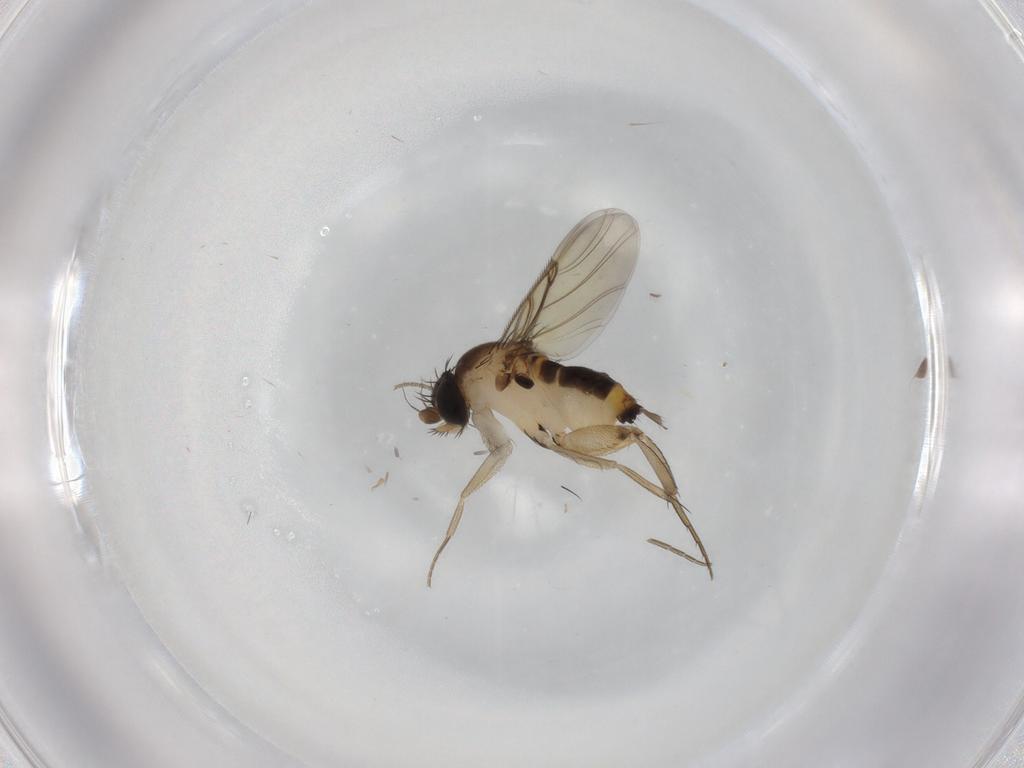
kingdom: Animalia
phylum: Arthropoda
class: Insecta
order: Diptera
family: Phoridae
